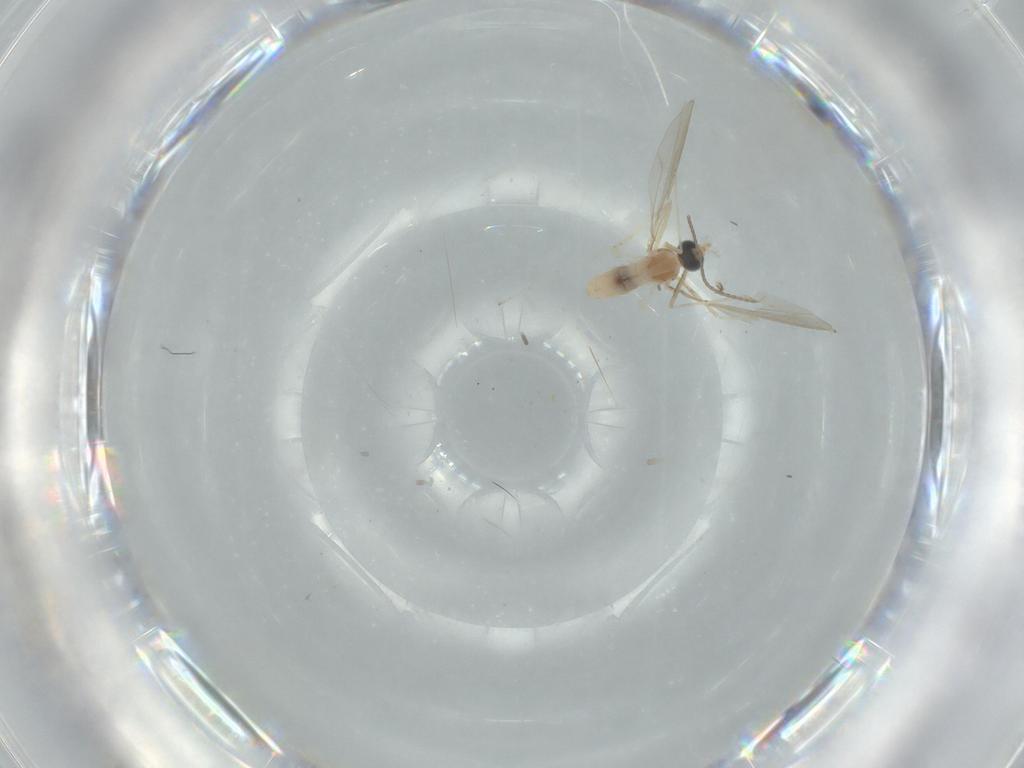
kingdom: Animalia
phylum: Arthropoda
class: Insecta
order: Diptera
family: Cecidomyiidae
